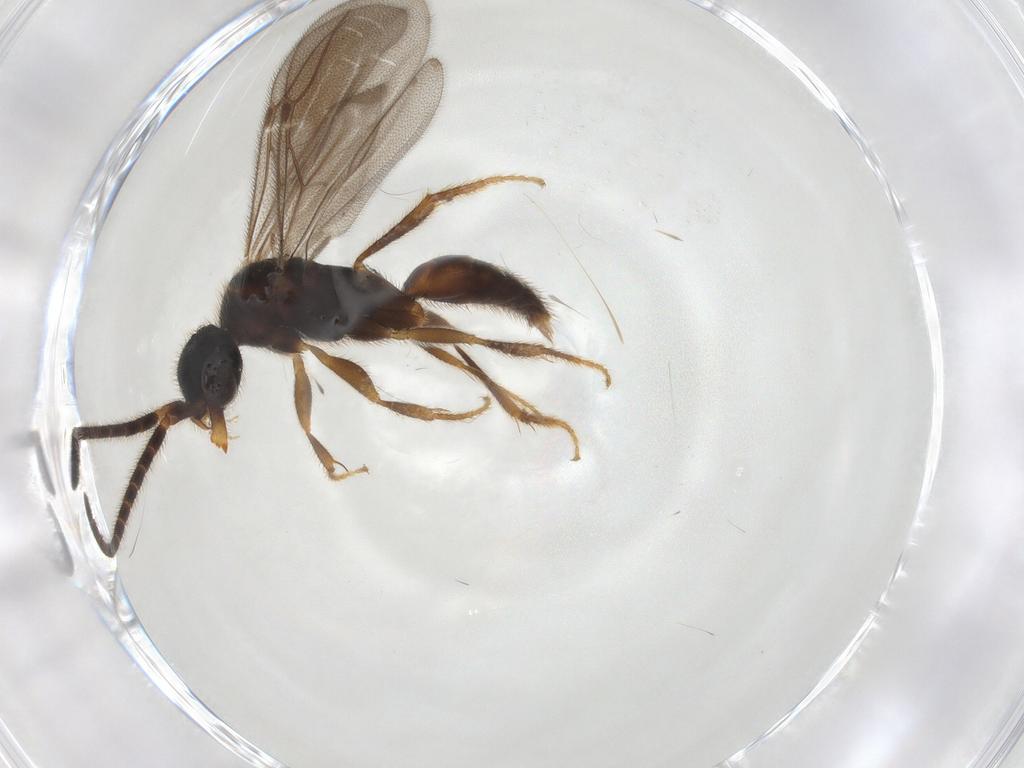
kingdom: Animalia
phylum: Arthropoda
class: Insecta
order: Hymenoptera
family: Bethylidae
